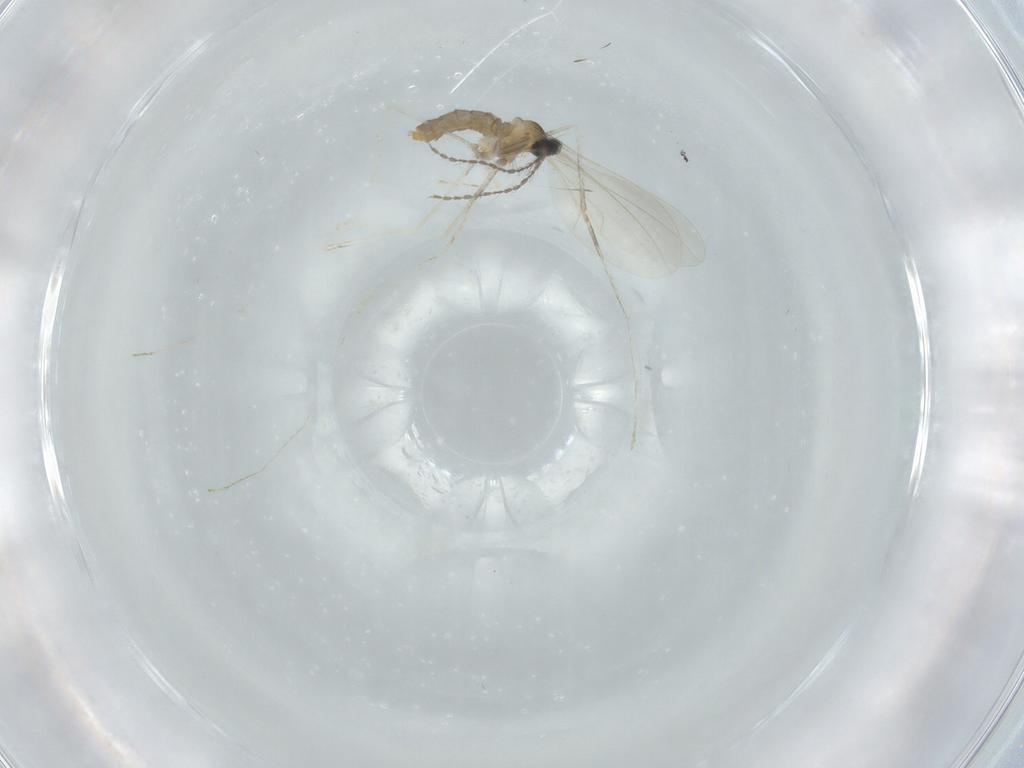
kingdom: Animalia
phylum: Arthropoda
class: Insecta
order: Diptera
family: Cecidomyiidae
